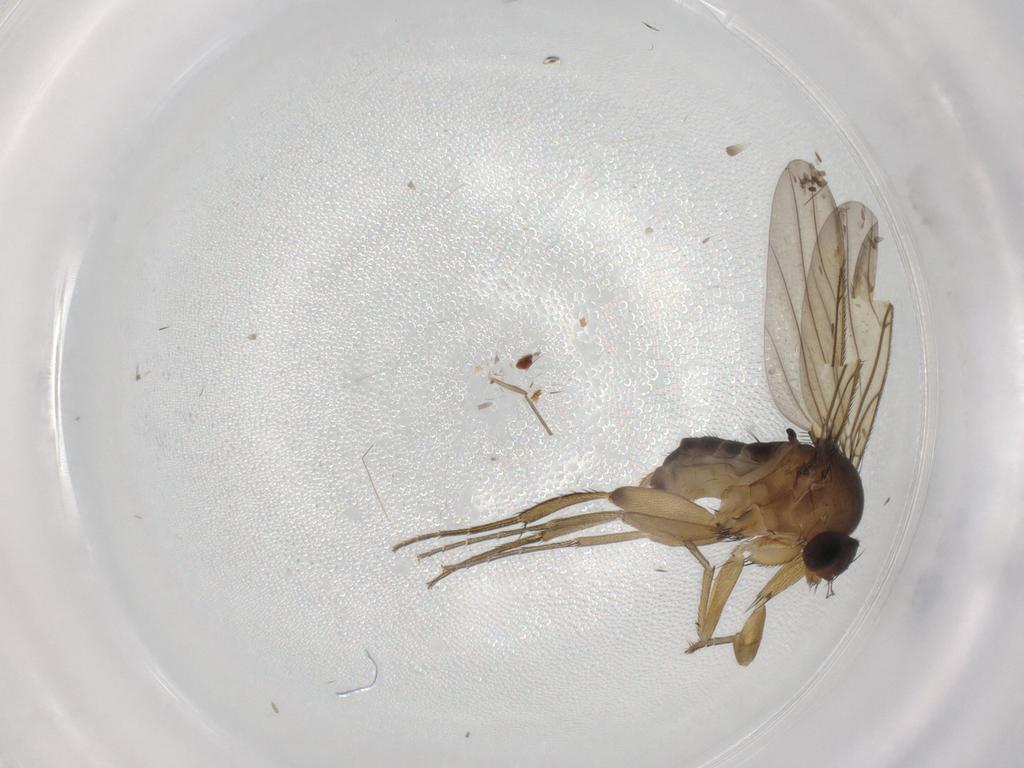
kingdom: Animalia
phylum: Arthropoda
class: Insecta
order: Diptera
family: Phoridae
